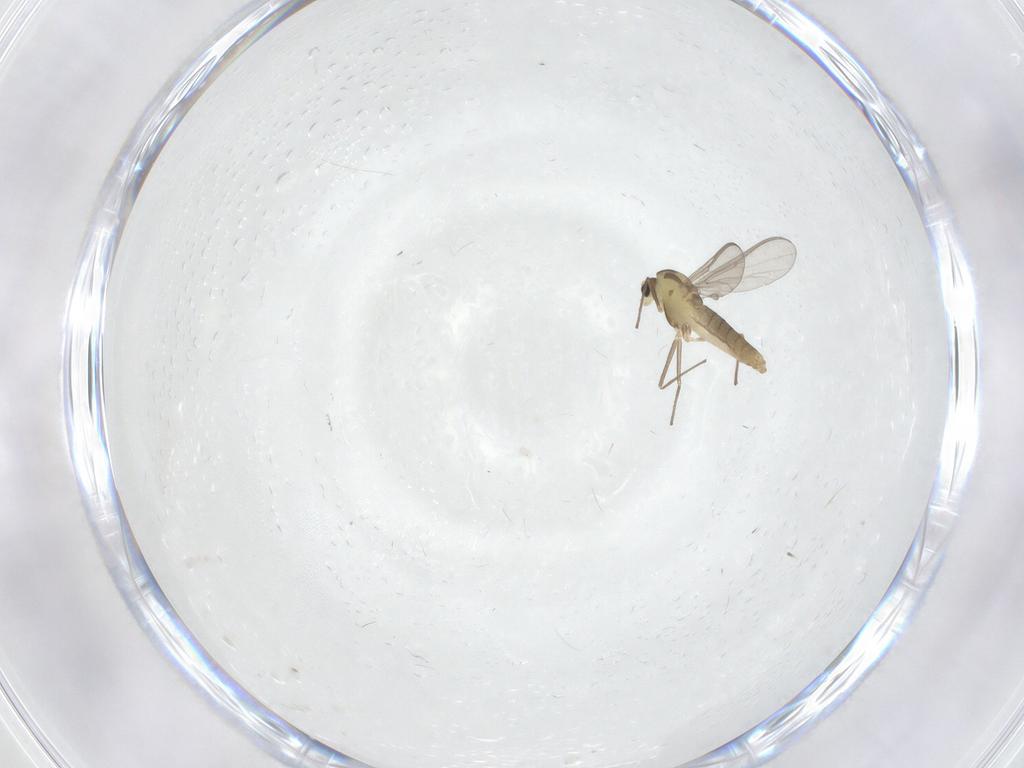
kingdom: Animalia
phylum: Arthropoda
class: Insecta
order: Diptera
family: Chironomidae
